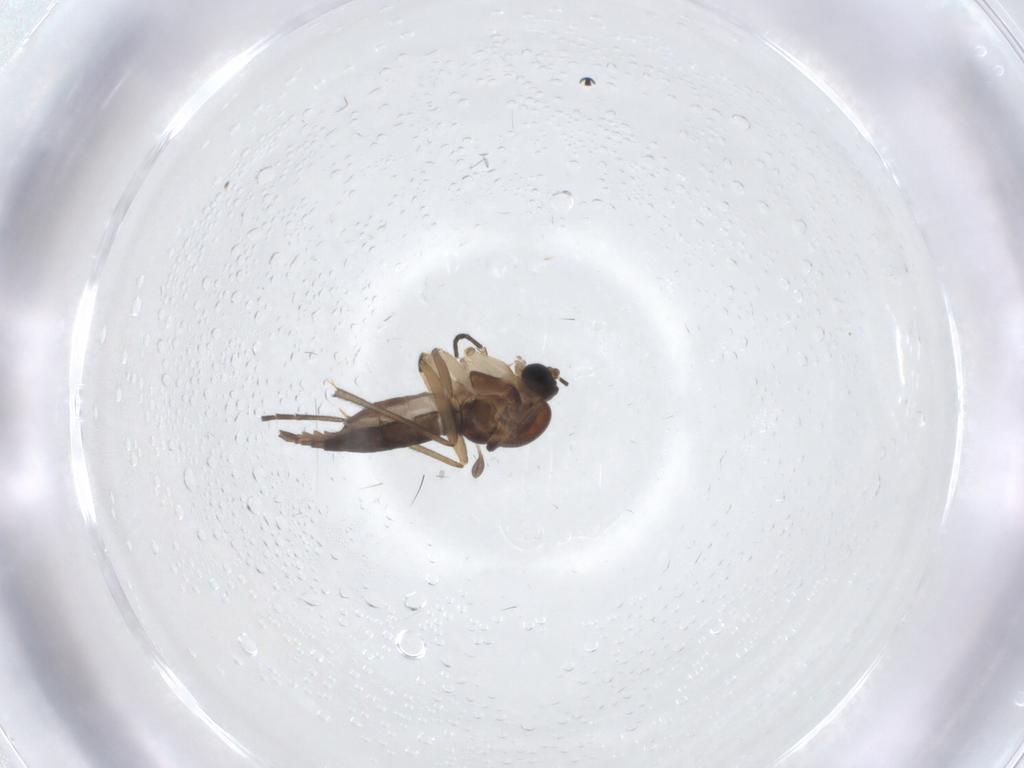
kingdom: Animalia
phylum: Arthropoda
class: Insecta
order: Diptera
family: Sciaridae
